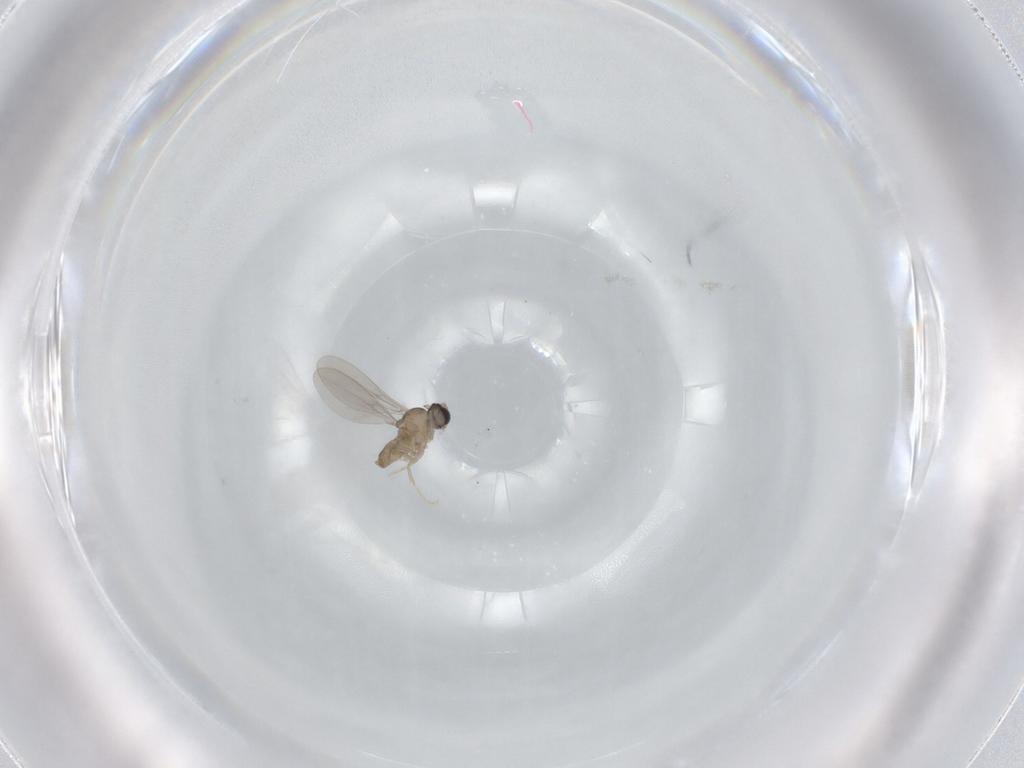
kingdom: Animalia
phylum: Arthropoda
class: Insecta
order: Diptera
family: Cecidomyiidae
